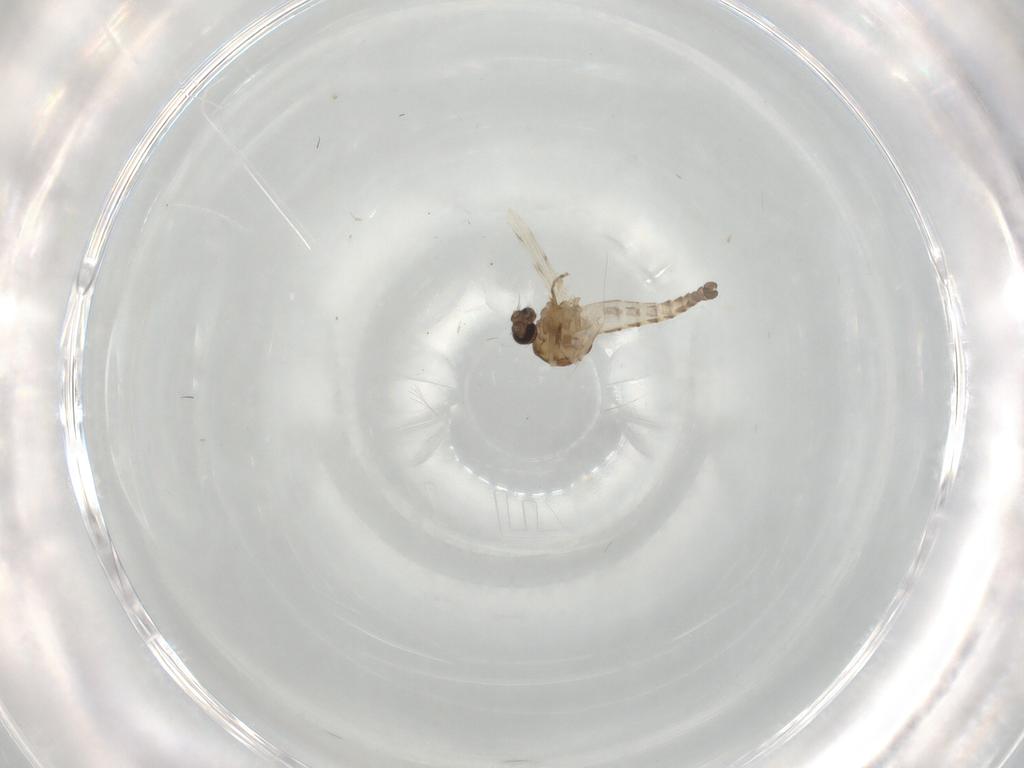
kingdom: Animalia
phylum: Arthropoda
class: Insecta
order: Diptera
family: Ceratopogonidae
